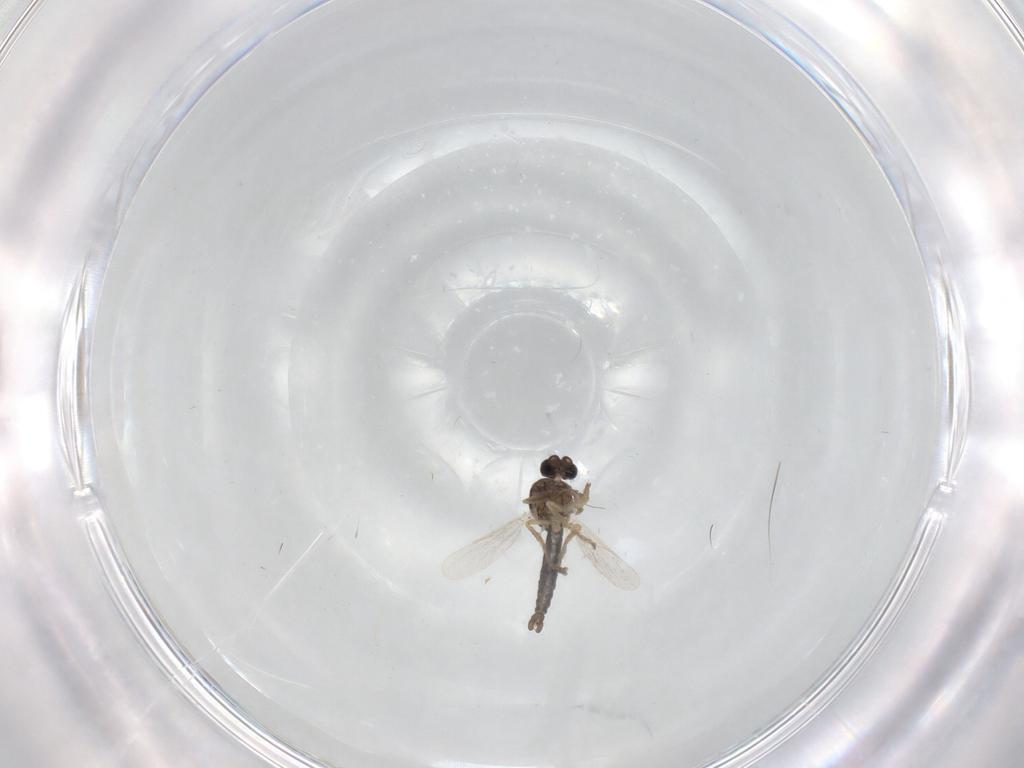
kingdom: Animalia
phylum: Arthropoda
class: Insecta
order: Diptera
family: Ceratopogonidae
